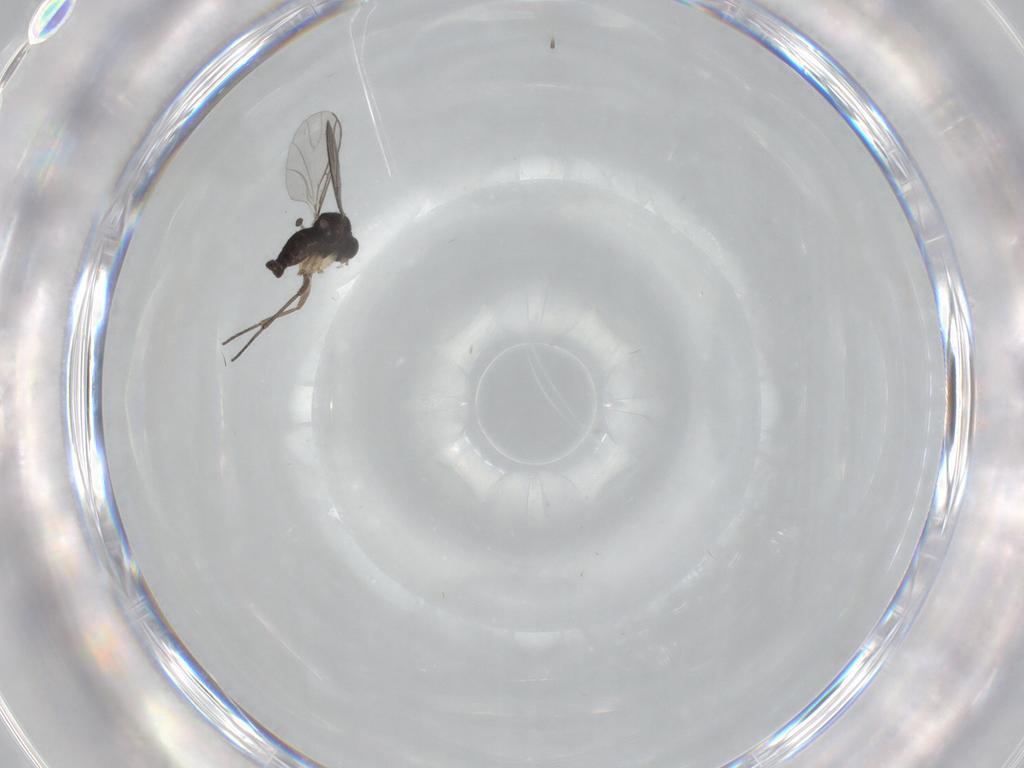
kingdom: Animalia
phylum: Arthropoda
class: Insecta
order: Diptera
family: Sciaridae
